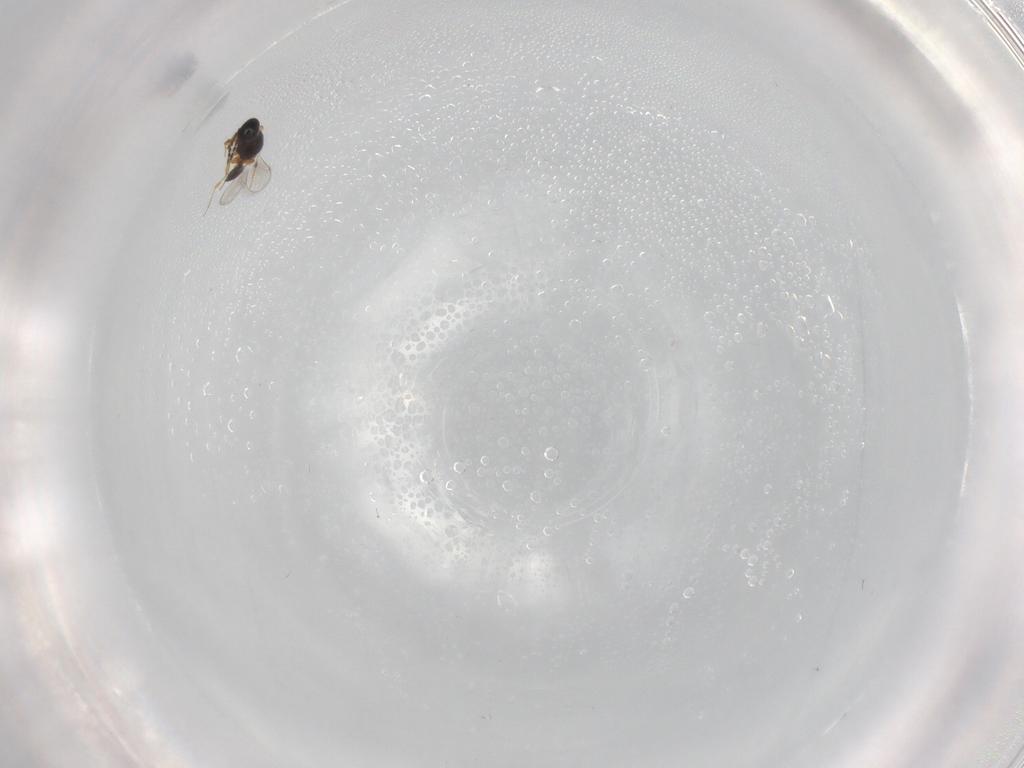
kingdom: Animalia
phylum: Arthropoda
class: Insecta
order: Hymenoptera
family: Platygastridae
